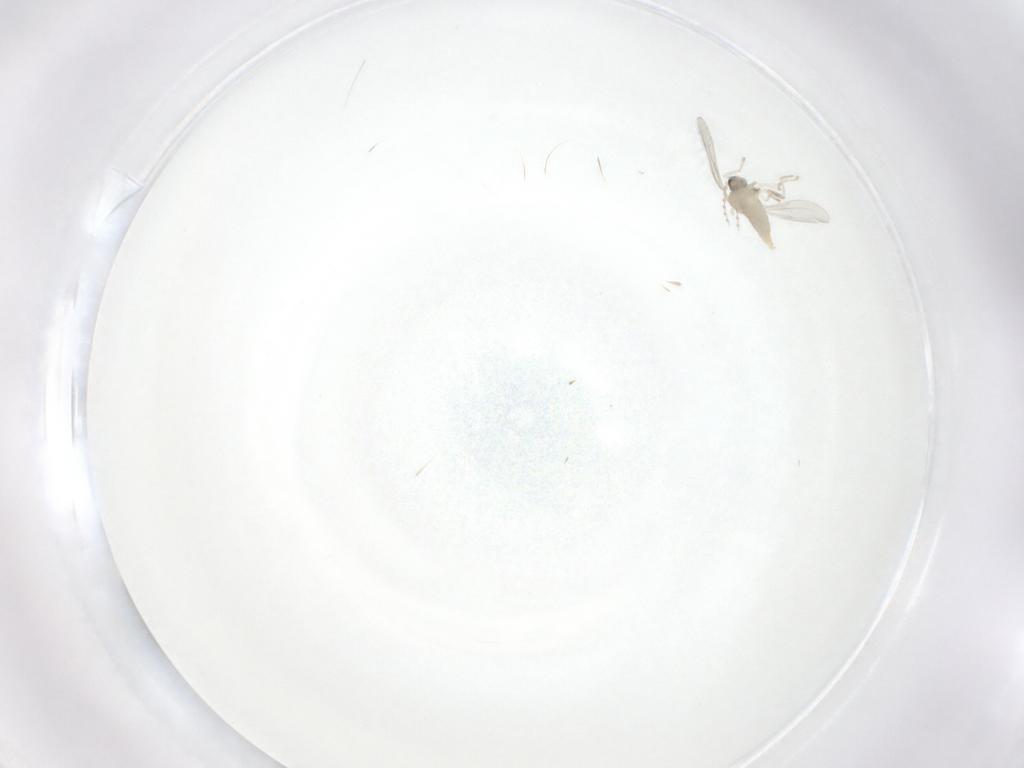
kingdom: Animalia
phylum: Arthropoda
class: Insecta
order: Diptera
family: Cecidomyiidae
